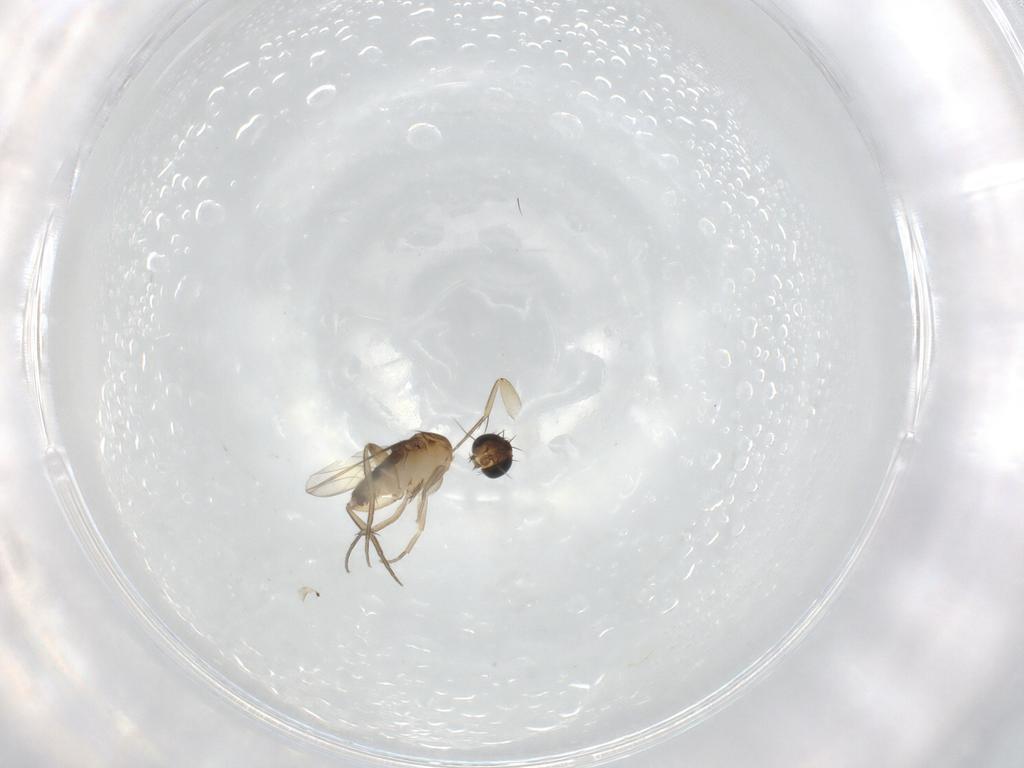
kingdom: Animalia
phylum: Arthropoda
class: Insecta
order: Diptera
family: Phoridae
